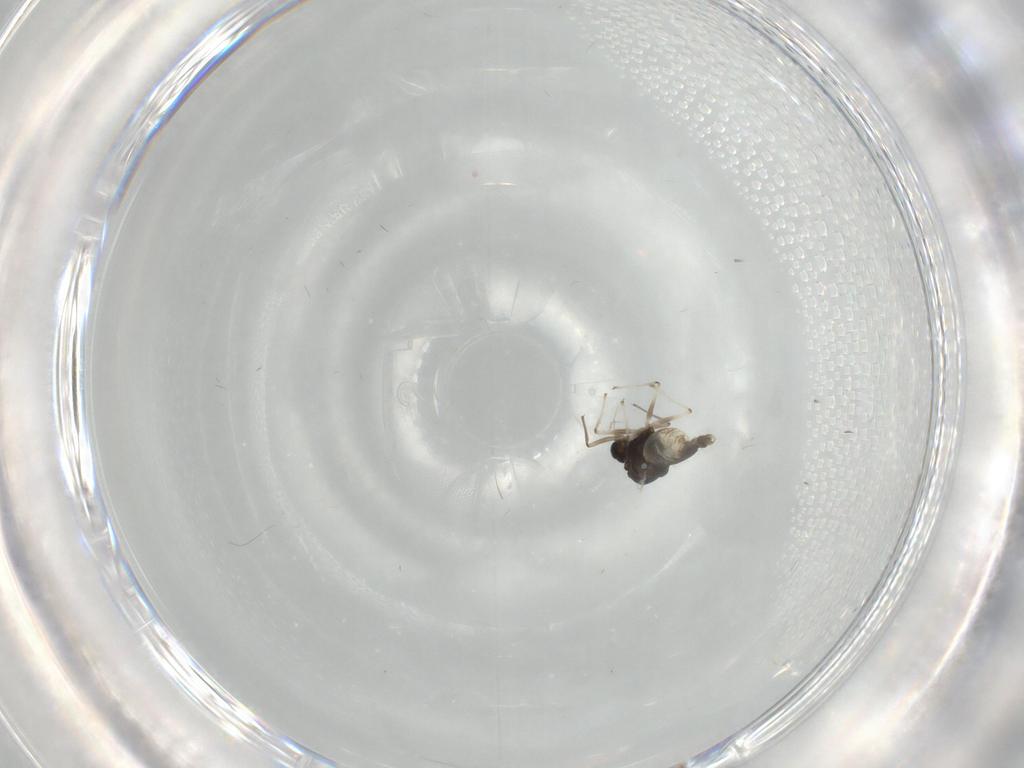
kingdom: Animalia
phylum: Arthropoda
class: Insecta
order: Diptera
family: Chironomidae
